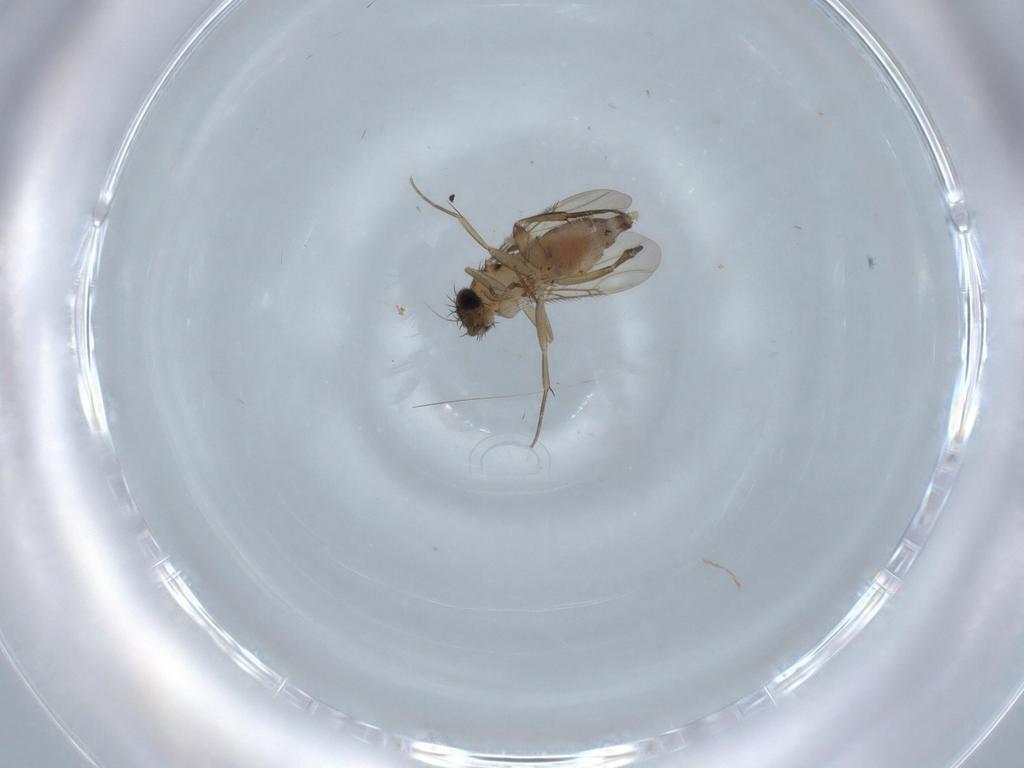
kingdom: Animalia
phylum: Arthropoda
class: Insecta
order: Diptera
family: Phoridae
